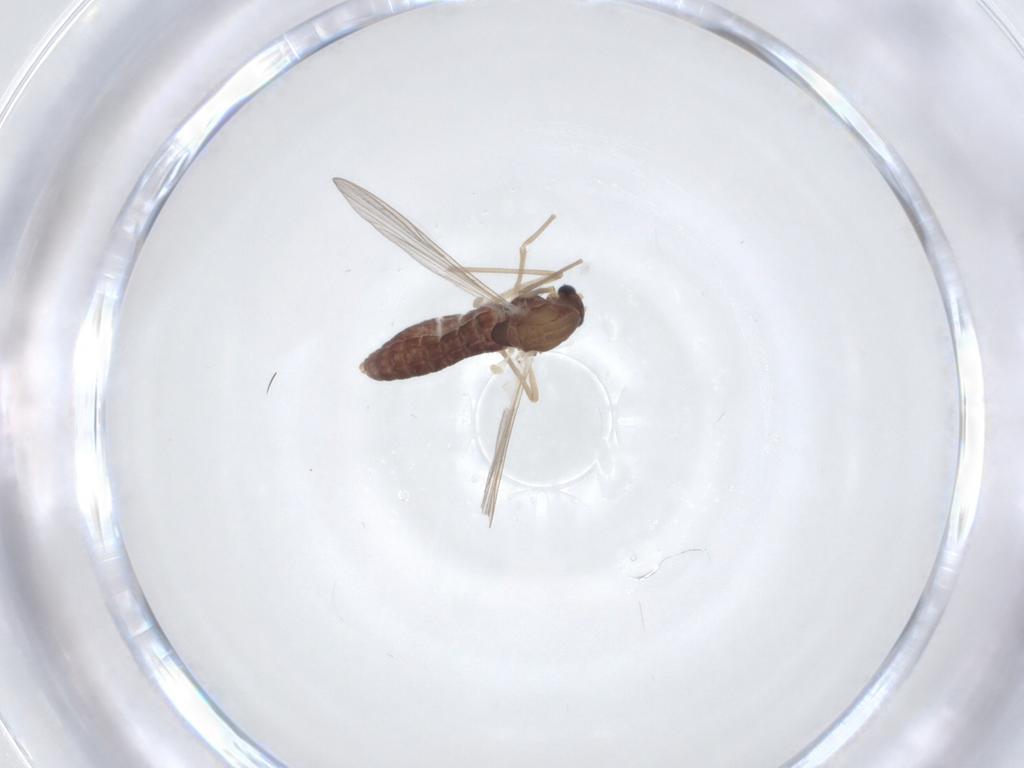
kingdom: Animalia
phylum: Arthropoda
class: Insecta
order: Diptera
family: Chironomidae
